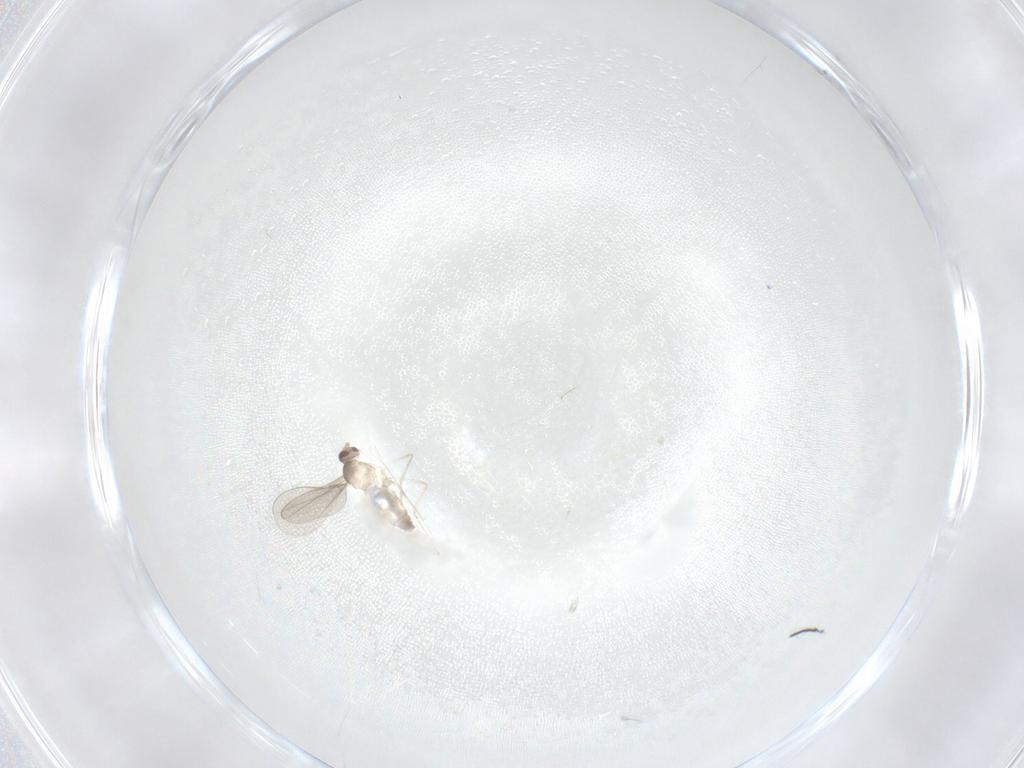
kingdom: Animalia
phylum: Arthropoda
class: Insecta
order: Diptera
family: Cecidomyiidae
